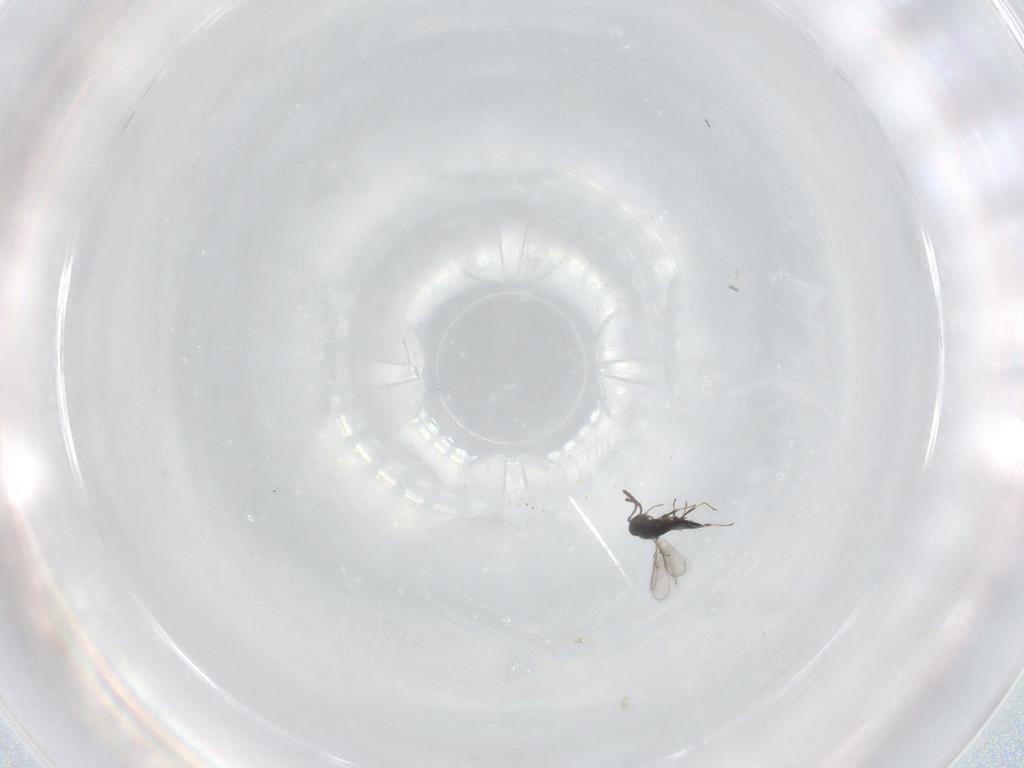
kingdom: Animalia
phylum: Arthropoda
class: Insecta
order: Hymenoptera
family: Scelionidae
